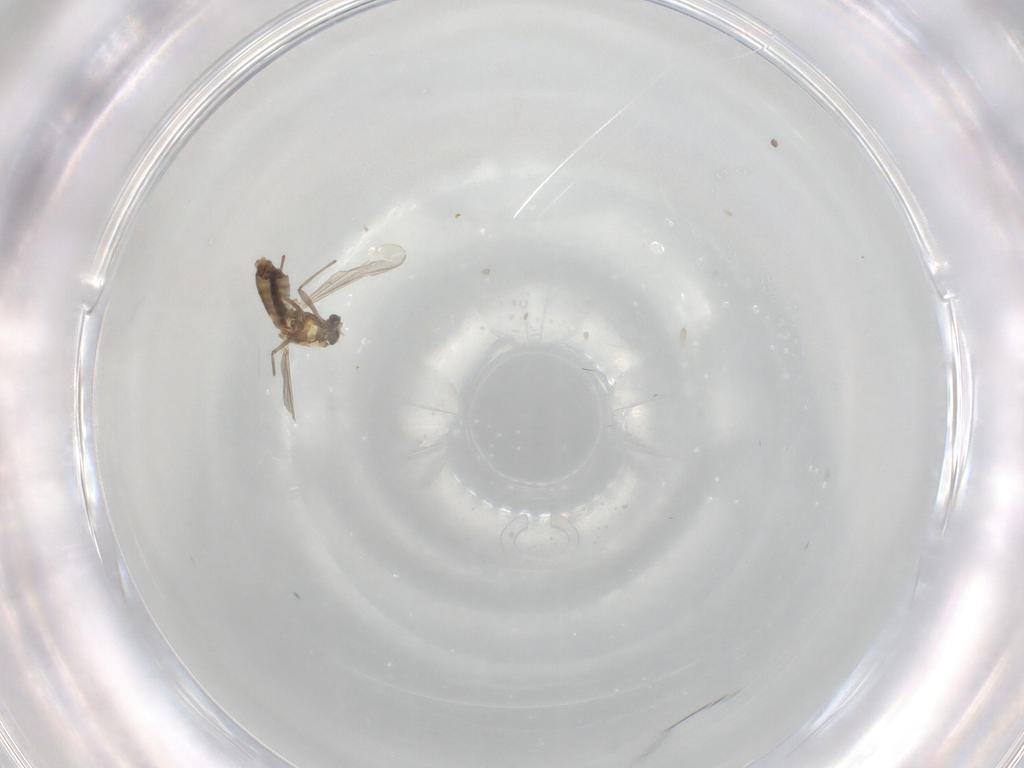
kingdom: Animalia
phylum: Arthropoda
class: Insecta
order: Diptera
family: Chironomidae
